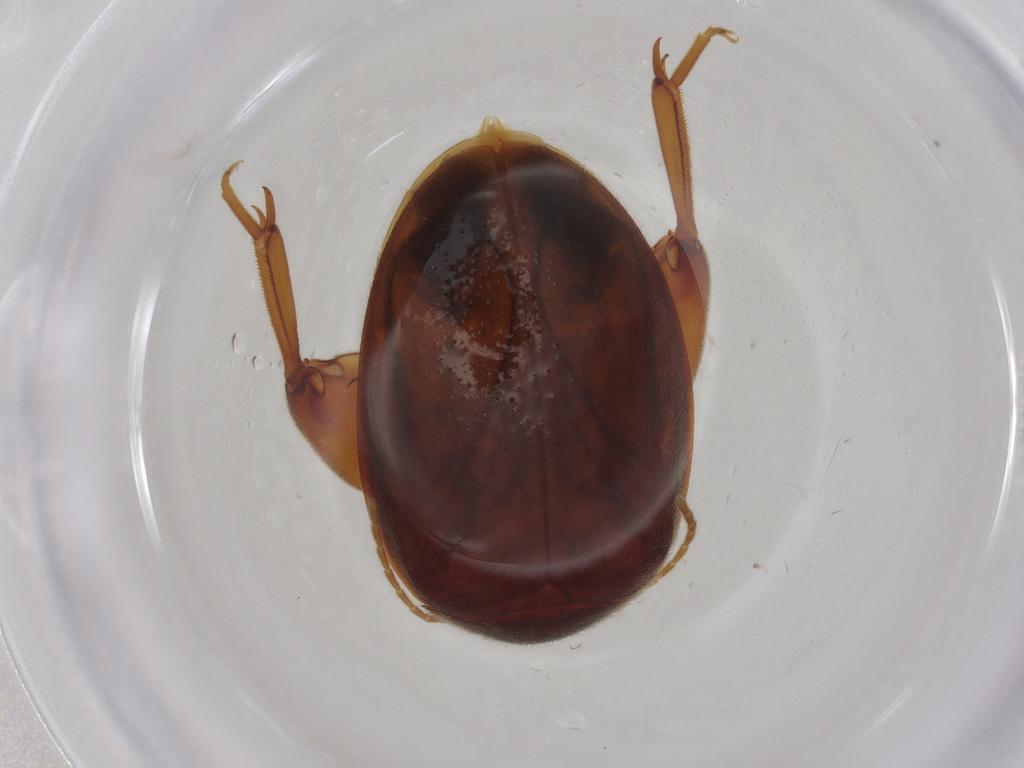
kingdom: Animalia
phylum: Arthropoda
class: Insecta
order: Coleoptera
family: Scirtidae
